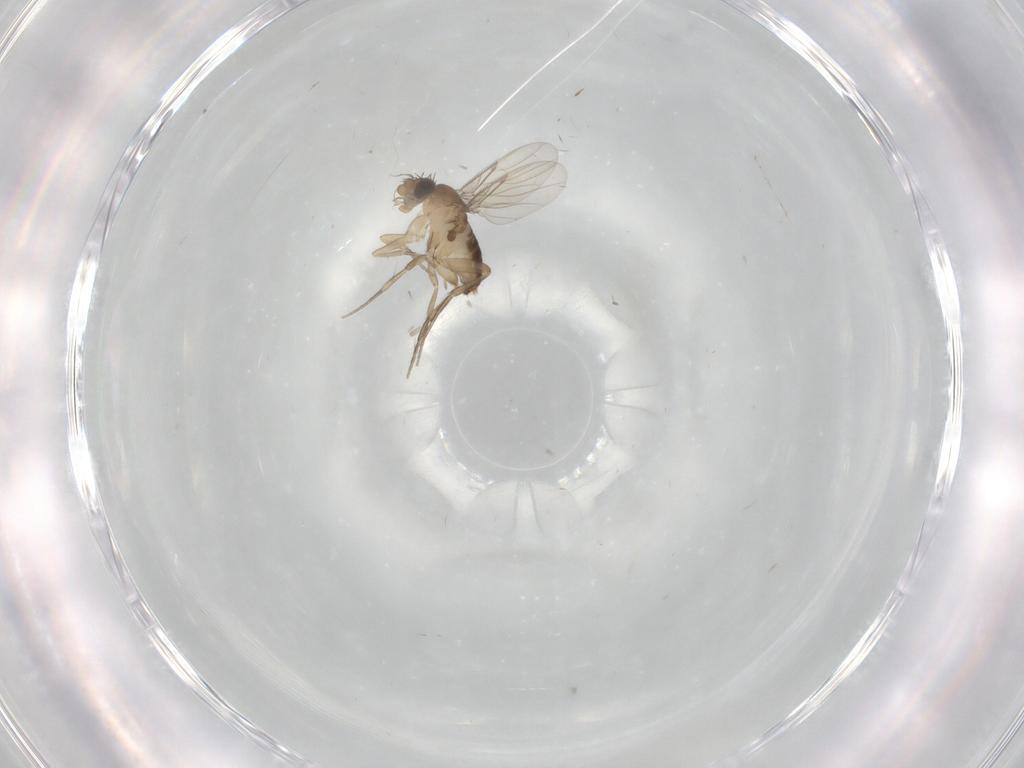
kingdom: Animalia
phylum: Arthropoda
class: Insecta
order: Diptera
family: Phoridae
